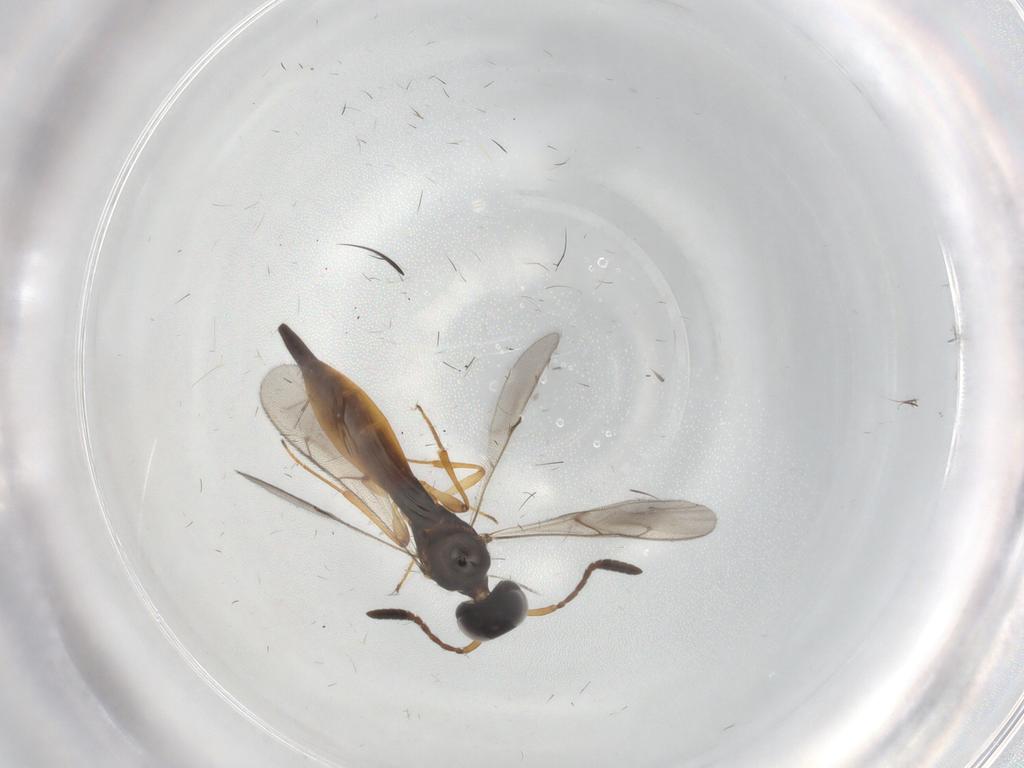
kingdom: Animalia
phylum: Arthropoda
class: Insecta
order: Hymenoptera
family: Scelionidae
